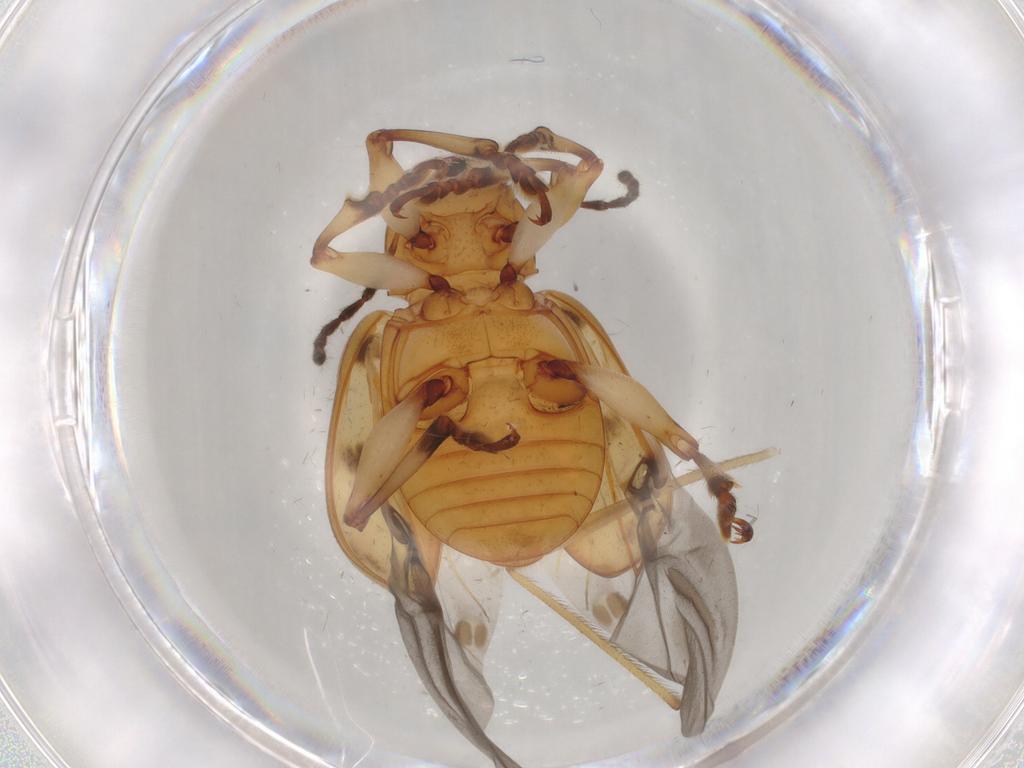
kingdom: Animalia
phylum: Arthropoda
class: Insecta
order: Coleoptera
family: Chrysomelidae
